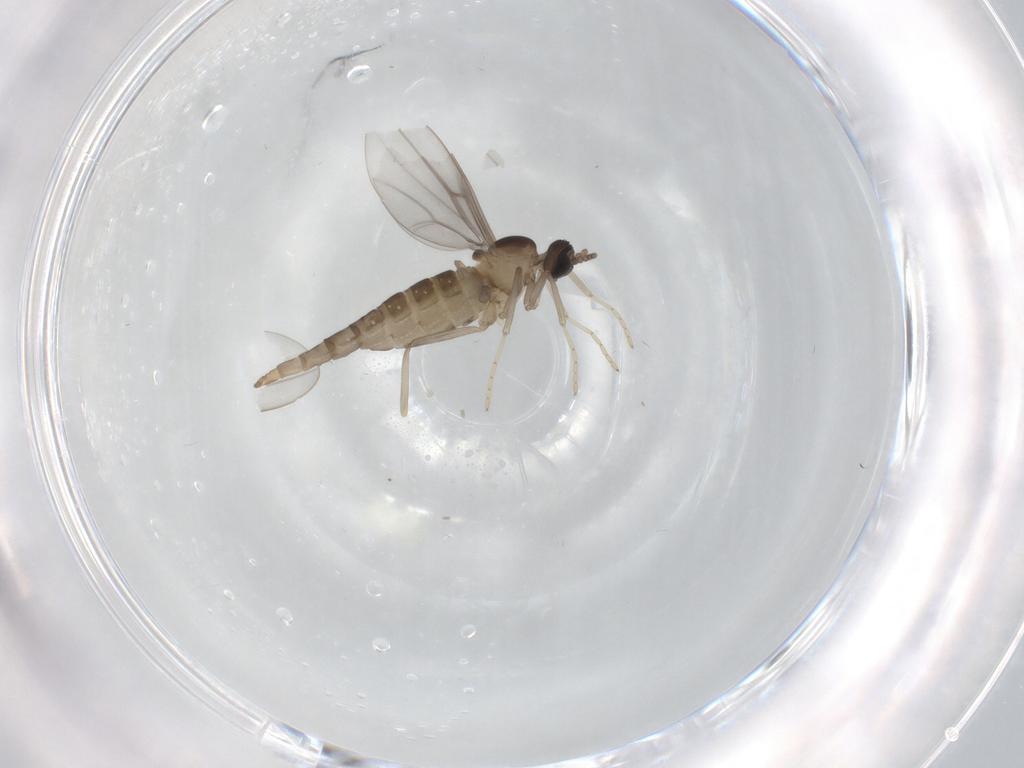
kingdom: Animalia
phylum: Arthropoda
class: Insecta
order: Diptera
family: Cecidomyiidae
